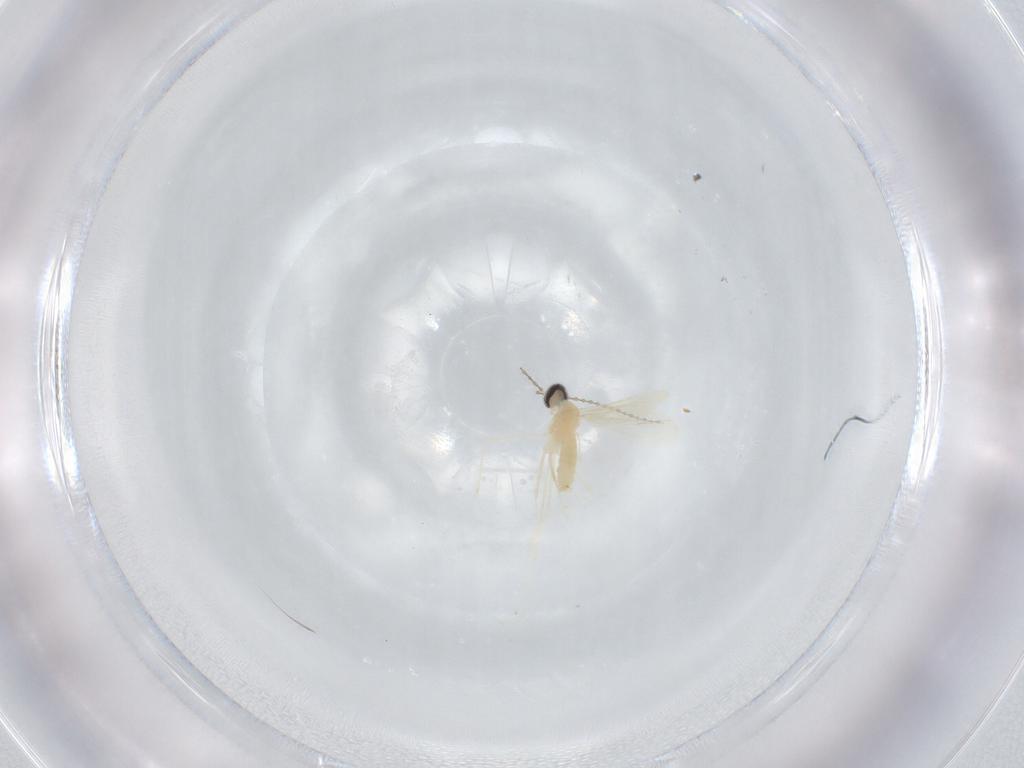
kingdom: Animalia
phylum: Arthropoda
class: Insecta
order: Diptera
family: Cecidomyiidae
